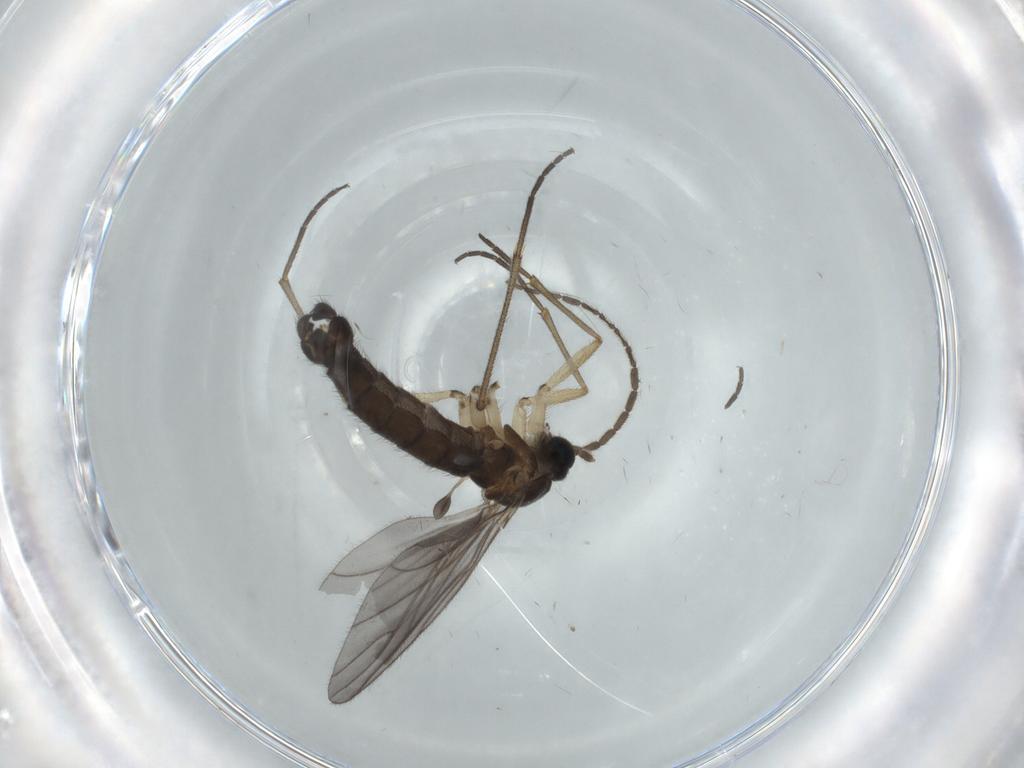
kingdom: Animalia
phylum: Arthropoda
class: Insecta
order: Diptera
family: Sciaridae
